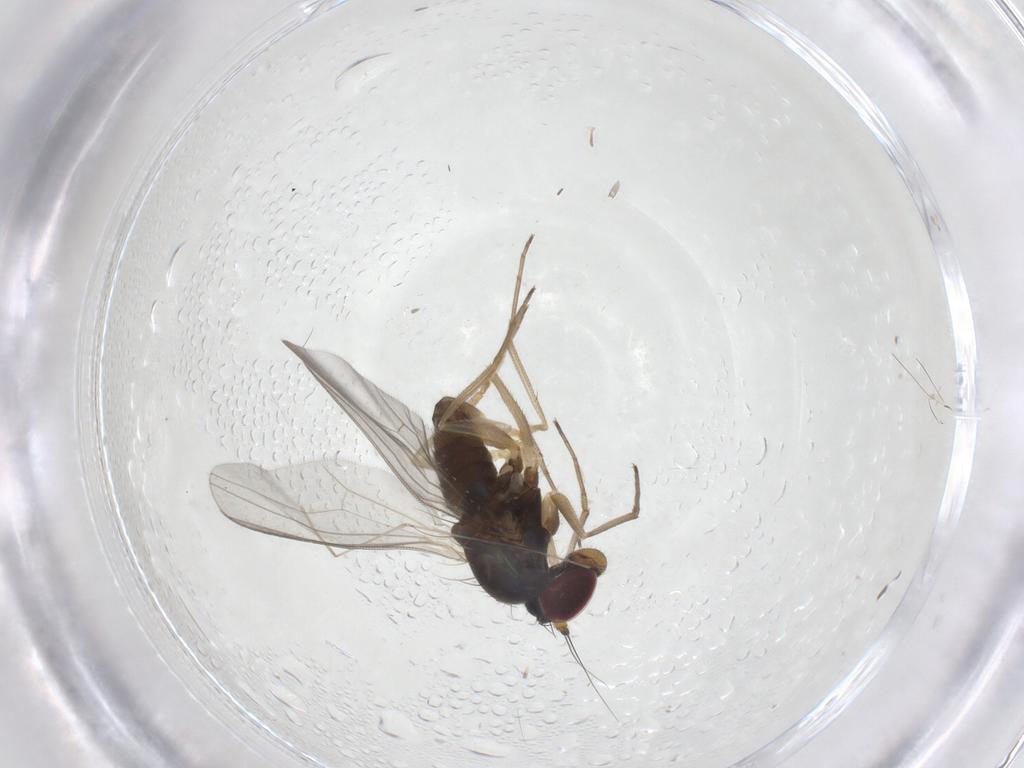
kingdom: Animalia
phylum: Arthropoda
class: Insecta
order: Diptera
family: Dolichopodidae
